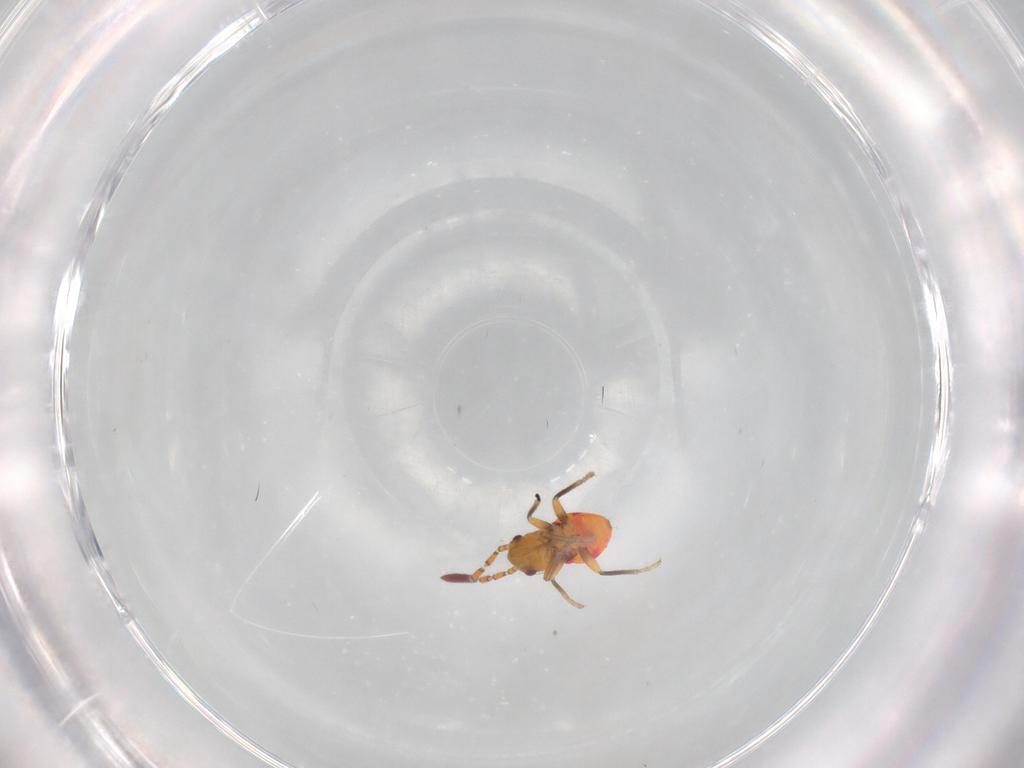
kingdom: Animalia
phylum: Arthropoda
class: Insecta
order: Hemiptera
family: Rhyparochromidae
